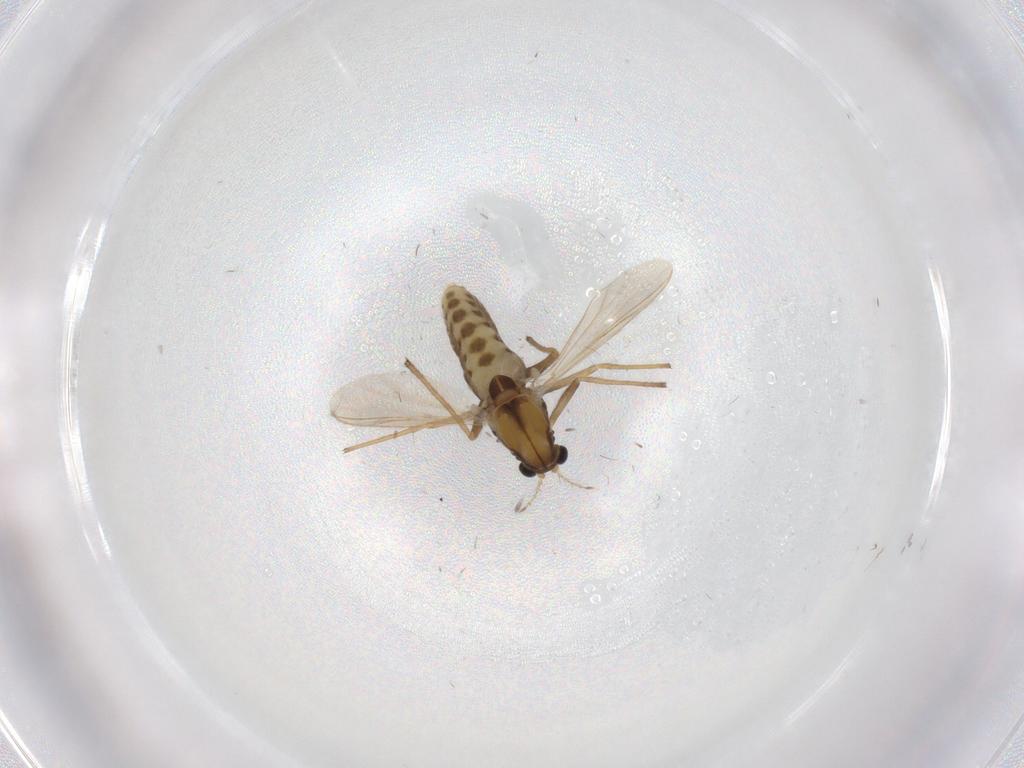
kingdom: Animalia
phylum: Arthropoda
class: Insecta
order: Diptera
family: Chironomidae
